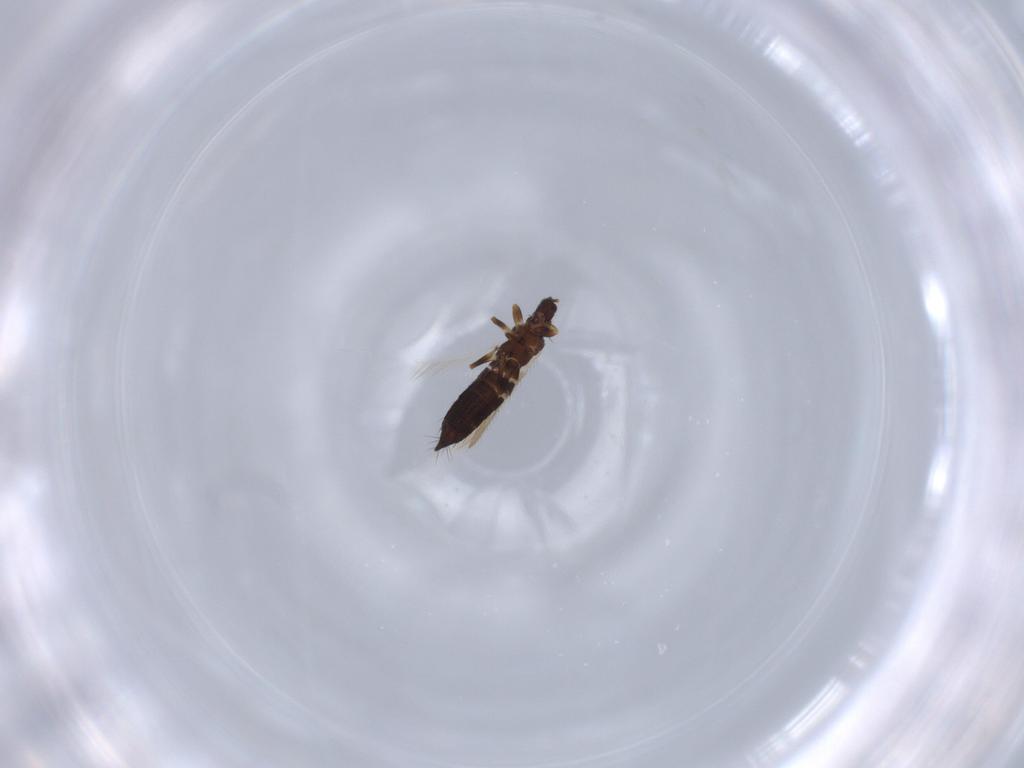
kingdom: Animalia
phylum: Arthropoda
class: Insecta
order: Thysanoptera
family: Thripidae
